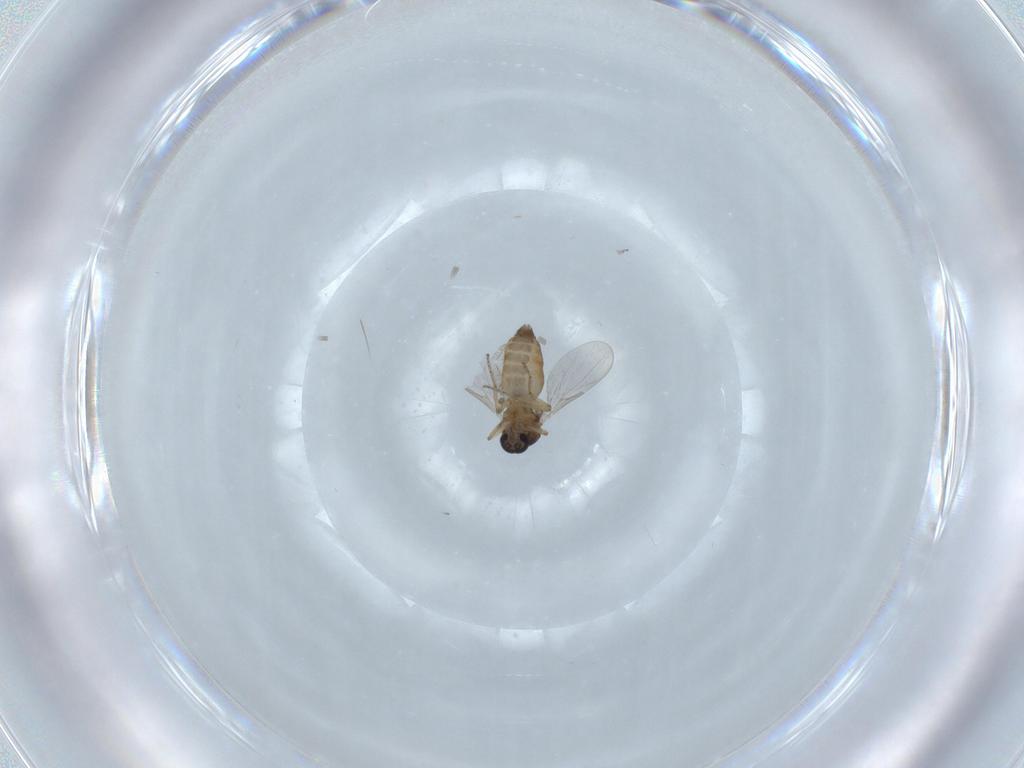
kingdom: Animalia
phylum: Arthropoda
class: Insecta
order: Diptera
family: Ceratopogonidae
